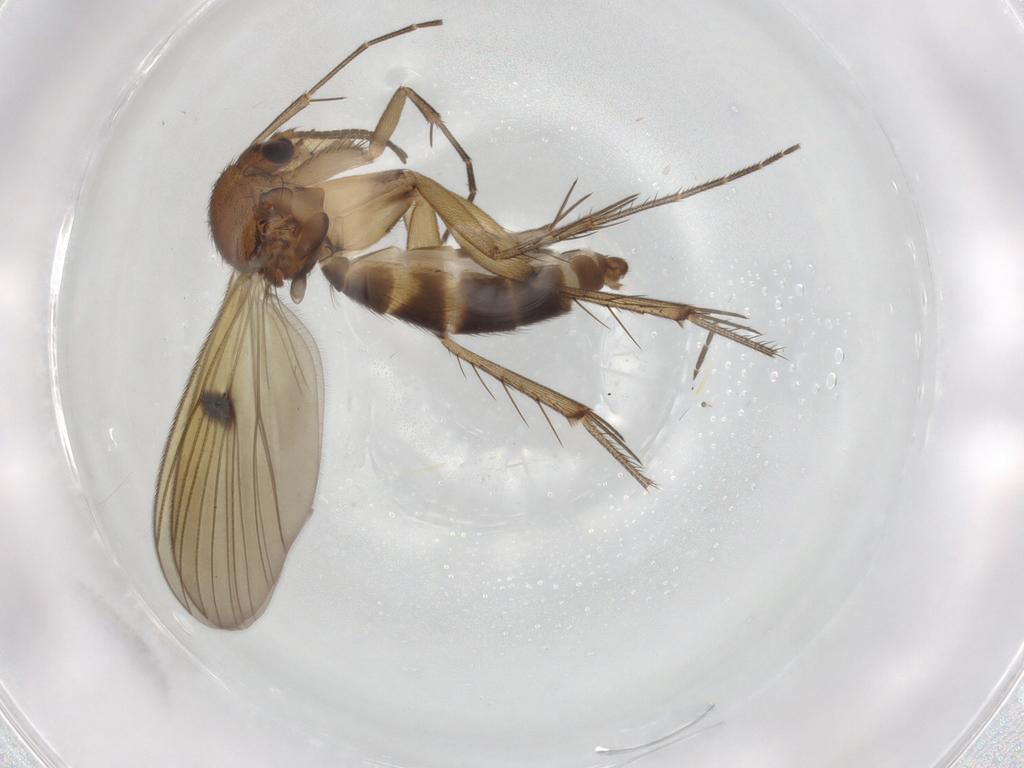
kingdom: Animalia
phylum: Arthropoda
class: Insecta
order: Diptera
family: Mycetophilidae
